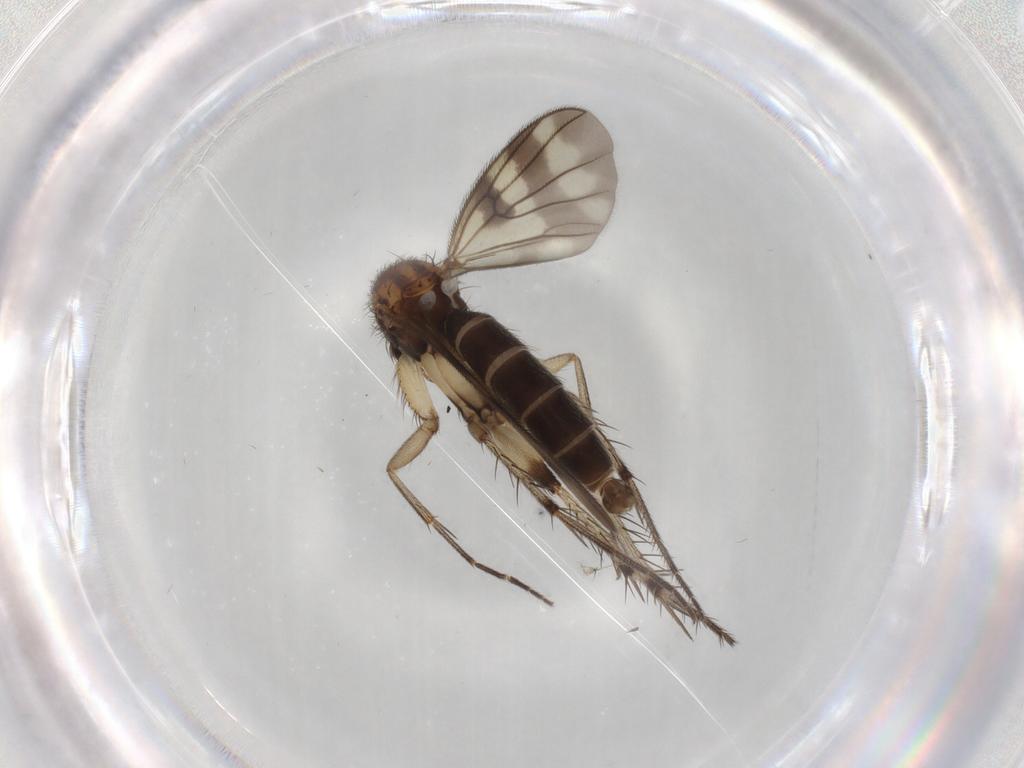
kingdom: Animalia
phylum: Arthropoda
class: Insecta
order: Diptera
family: Mycetophilidae
